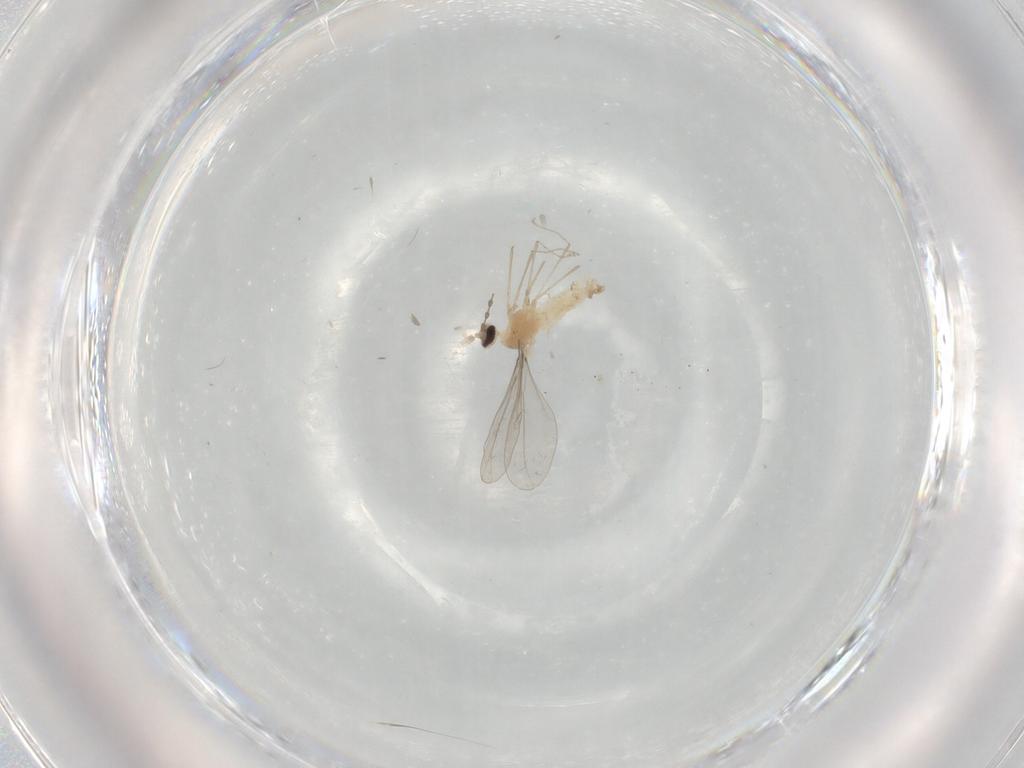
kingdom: Animalia
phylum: Arthropoda
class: Insecta
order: Diptera
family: Cecidomyiidae
